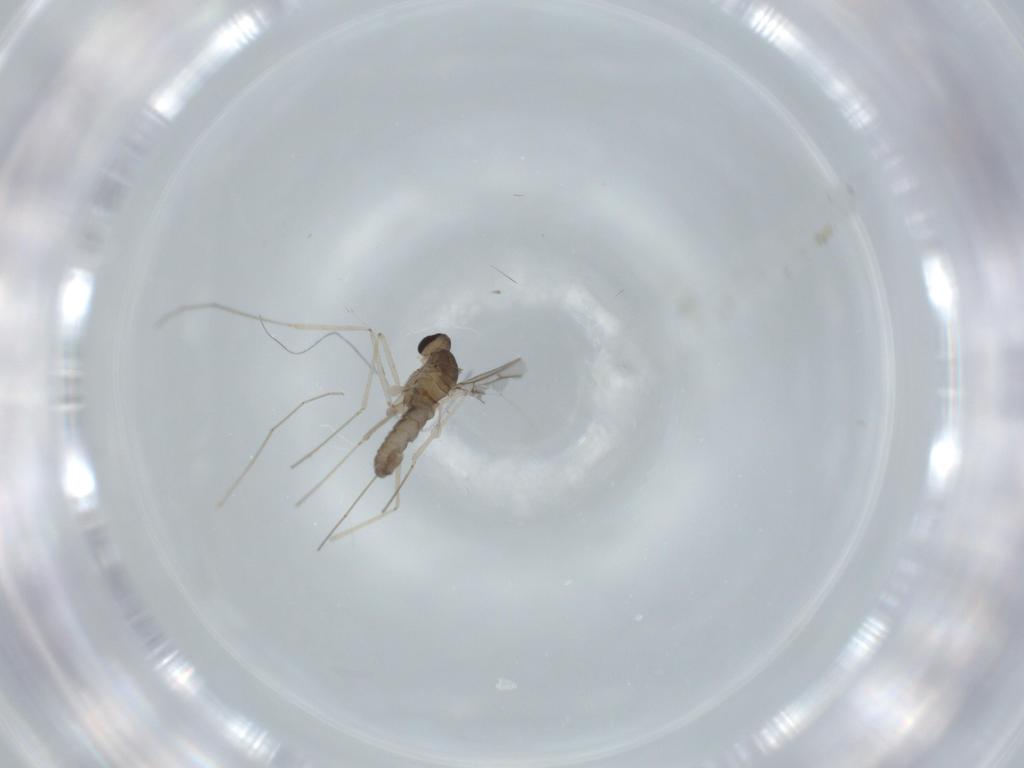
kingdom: Animalia
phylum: Arthropoda
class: Insecta
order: Diptera
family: Cecidomyiidae
